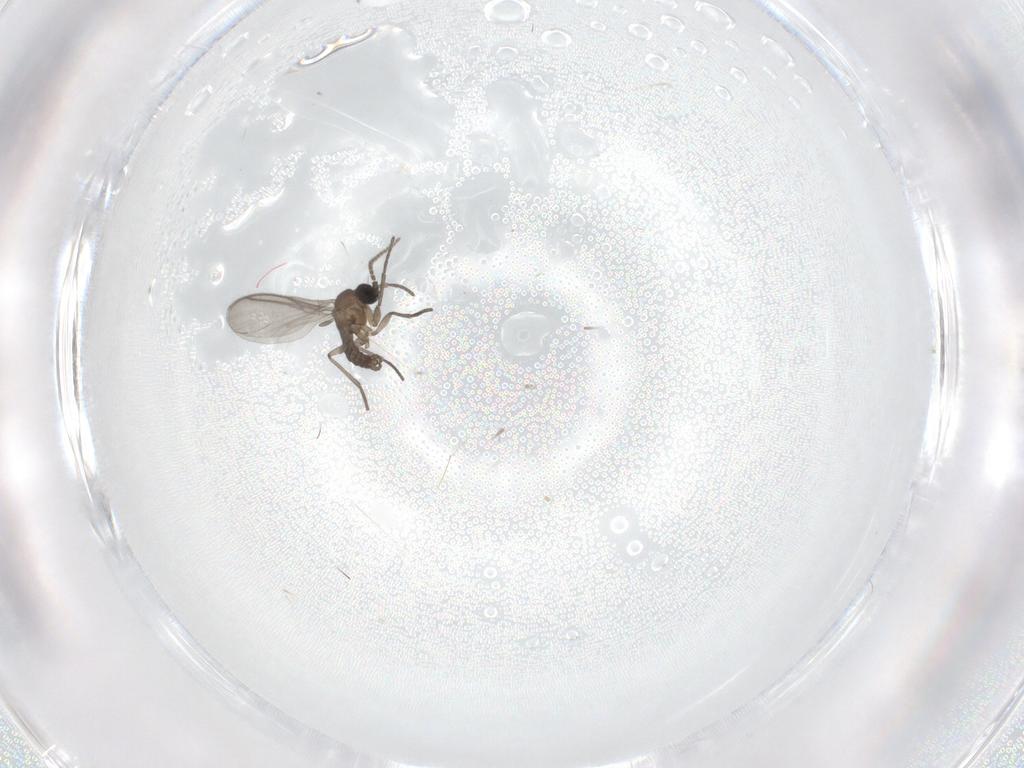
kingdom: Animalia
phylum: Arthropoda
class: Insecta
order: Diptera
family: Sciaridae
